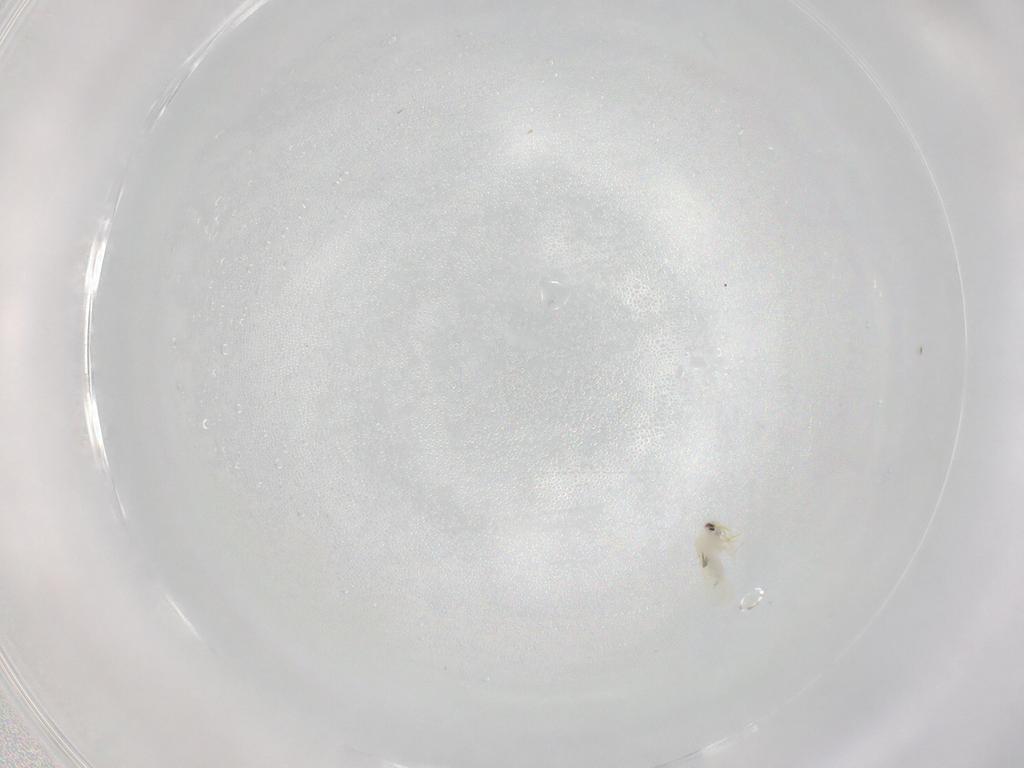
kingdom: Animalia
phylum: Arthropoda
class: Insecta
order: Hemiptera
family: Aleyrodidae
